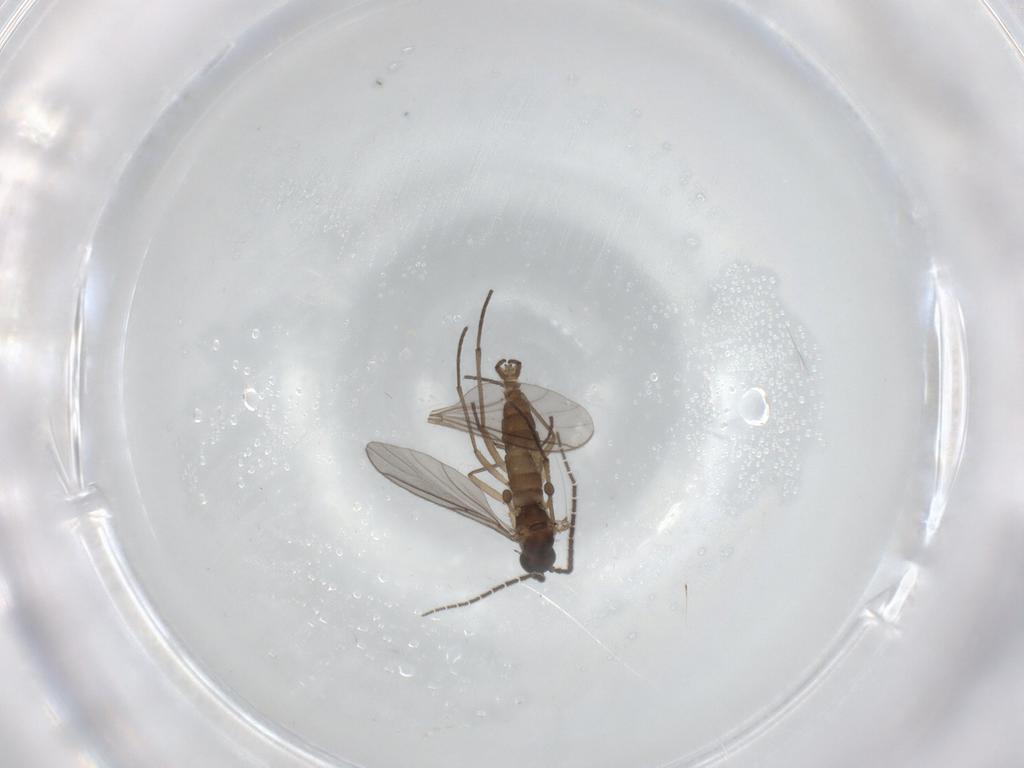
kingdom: Animalia
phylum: Arthropoda
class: Insecta
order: Diptera
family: Sciaridae
